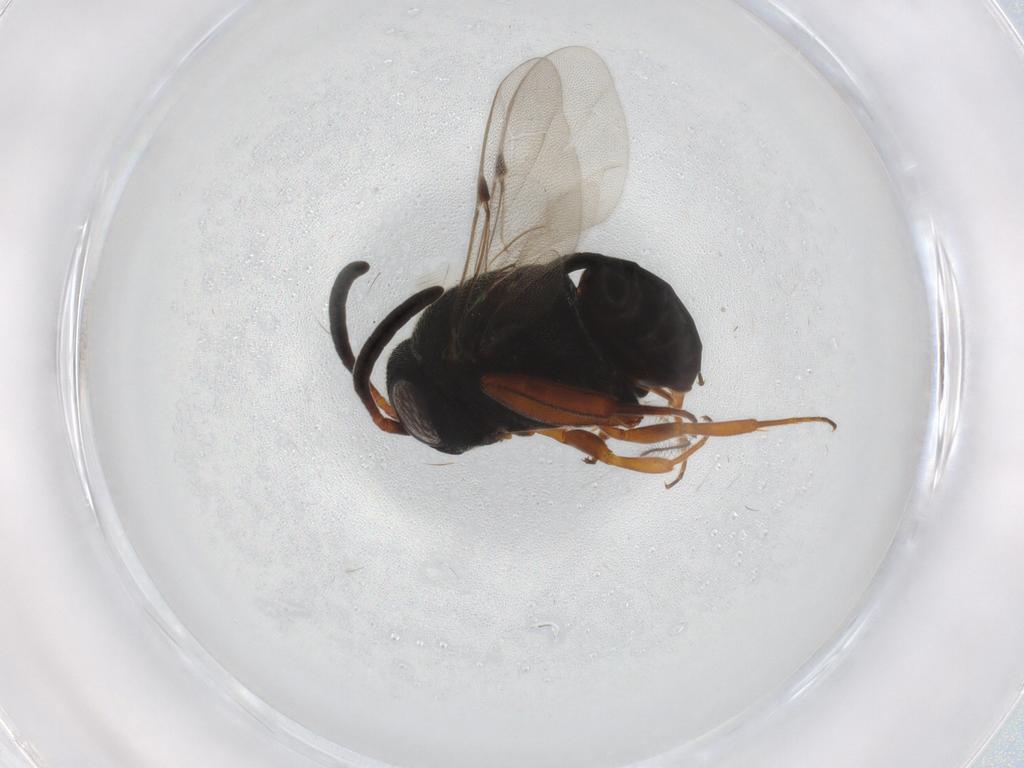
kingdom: Animalia
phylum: Arthropoda
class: Insecta
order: Hymenoptera
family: Evaniidae
